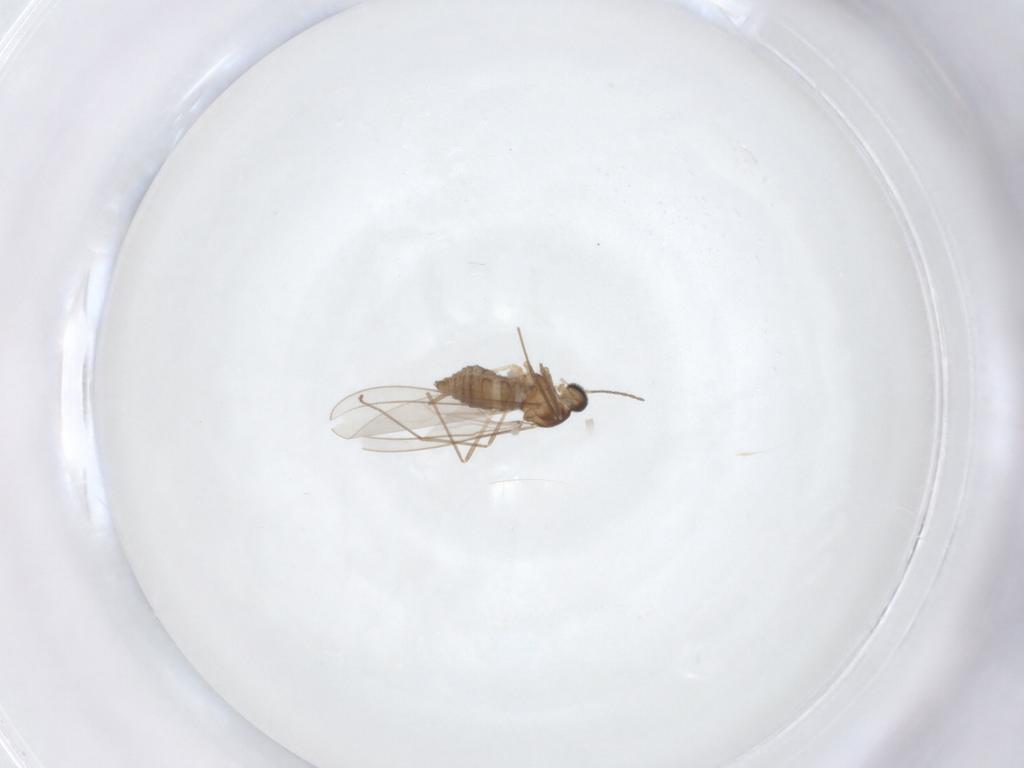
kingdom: Animalia
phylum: Arthropoda
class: Insecta
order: Diptera
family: Cecidomyiidae
